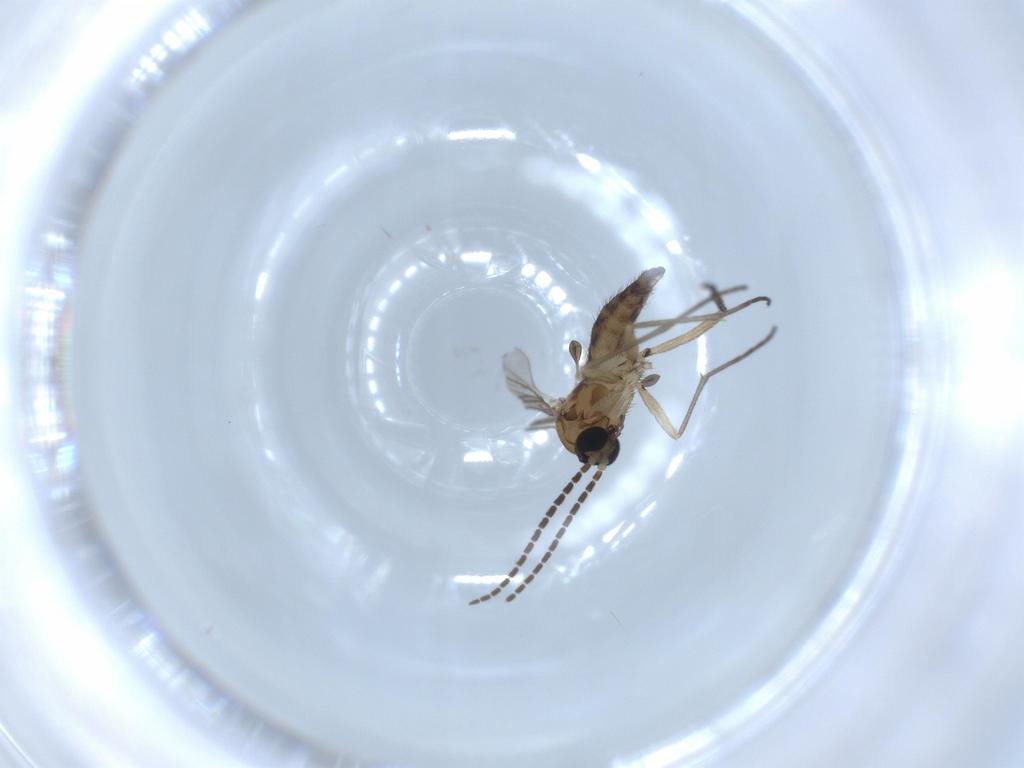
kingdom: Animalia
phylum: Arthropoda
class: Insecta
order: Diptera
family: Sciaridae
